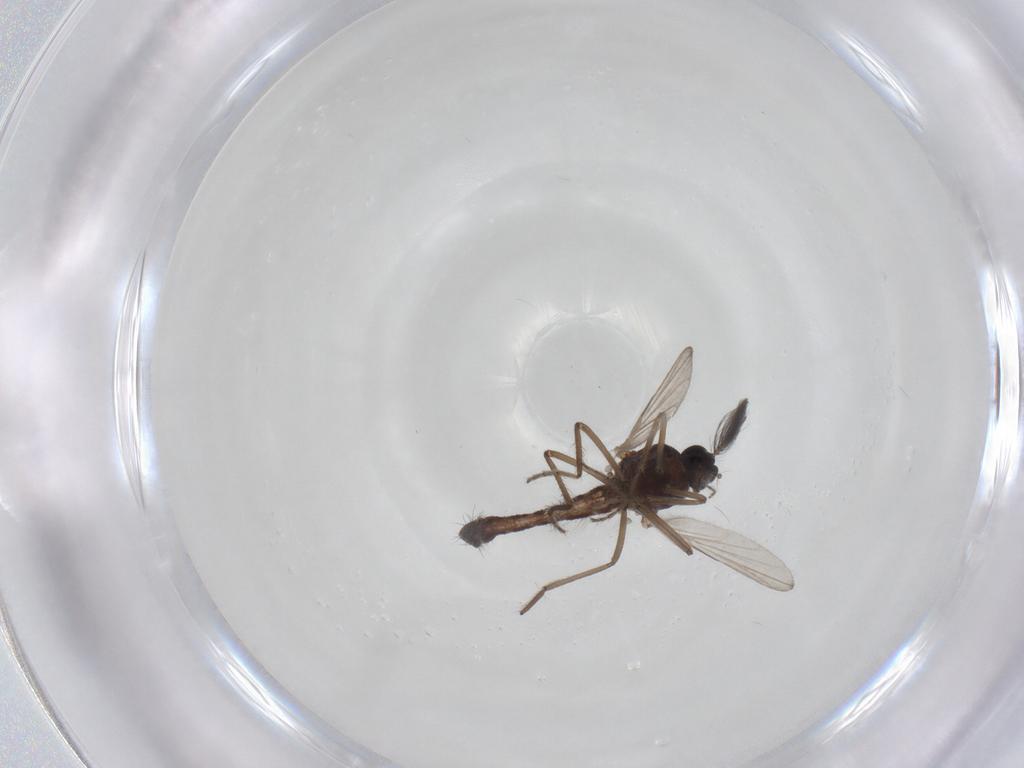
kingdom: Animalia
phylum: Arthropoda
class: Insecta
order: Diptera
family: Ceratopogonidae
